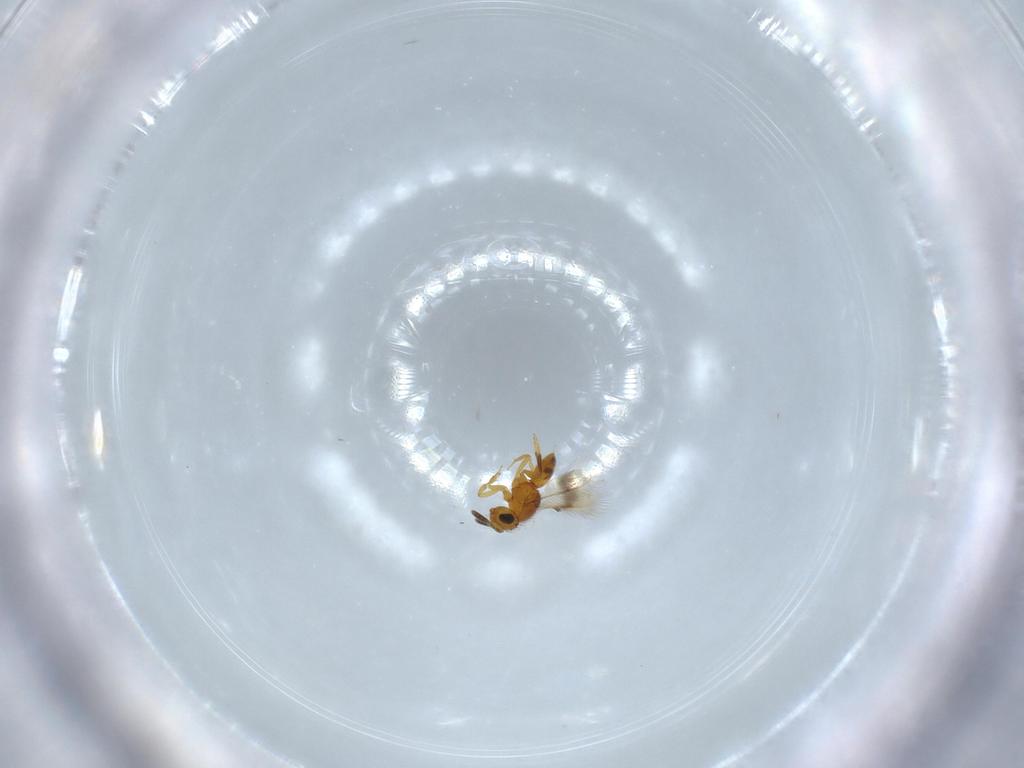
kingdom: Animalia
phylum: Arthropoda
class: Insecta
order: Hymenoptera
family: Scelionidae
